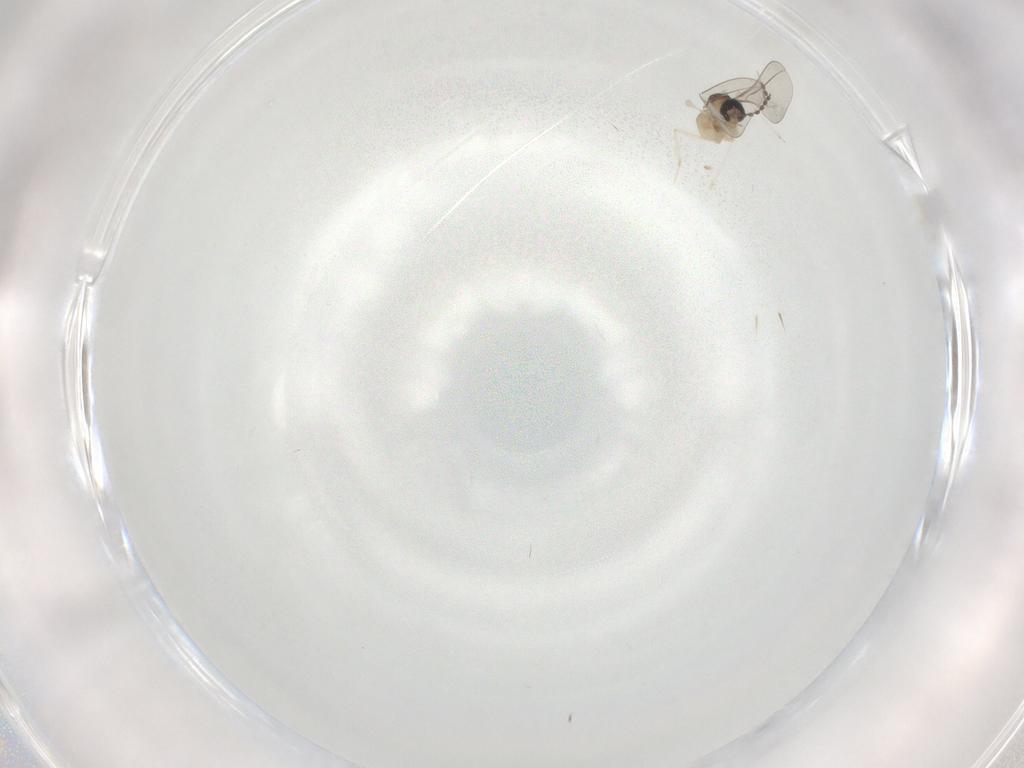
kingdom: Animalia
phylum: Arthropoda
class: Insecta
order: Diptera
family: Cecidomyiidae
